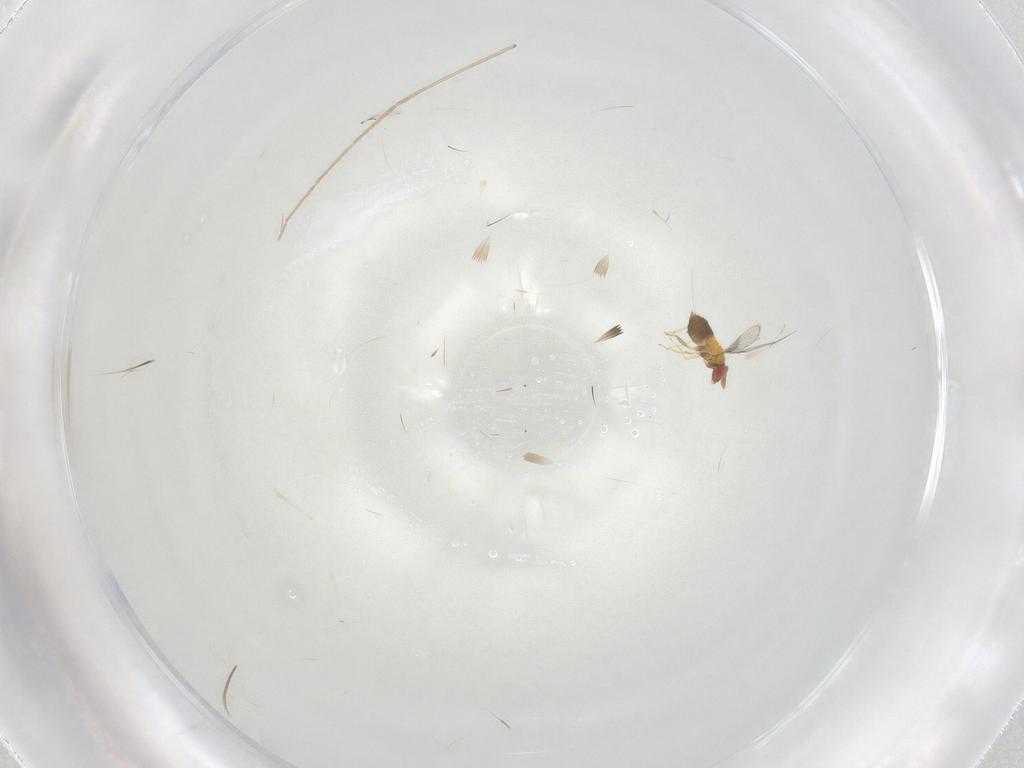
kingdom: Animalia
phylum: Arthropoda
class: Insecta
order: Hymenoptera
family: Trichogrammatidae
